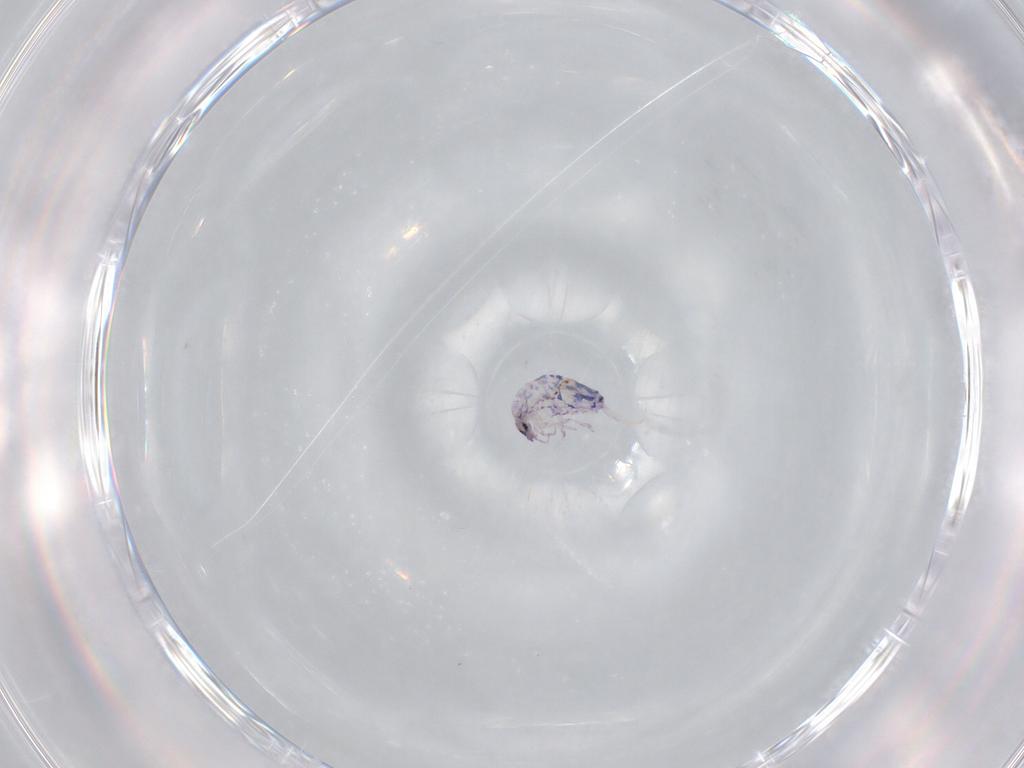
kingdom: Animalia
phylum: Arthropoda
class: Collembola
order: Entomobryomorpha
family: Entomobryidae
